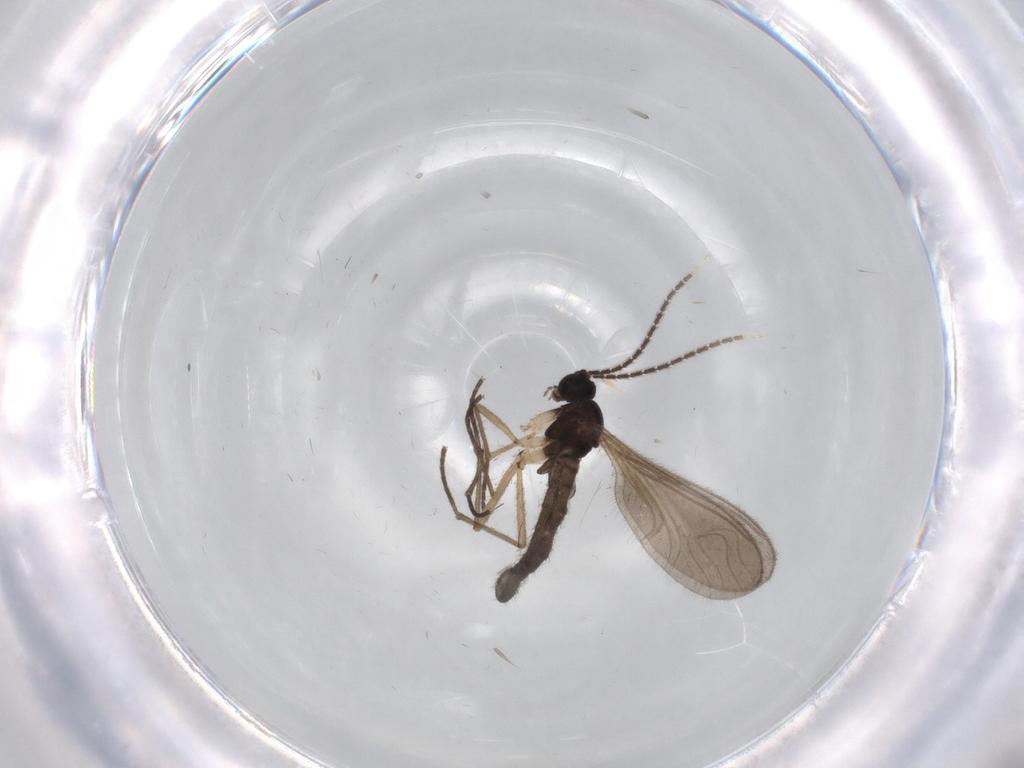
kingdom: Animalia
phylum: Arthropoda
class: Insecta
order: Diptera
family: Sciaridae
